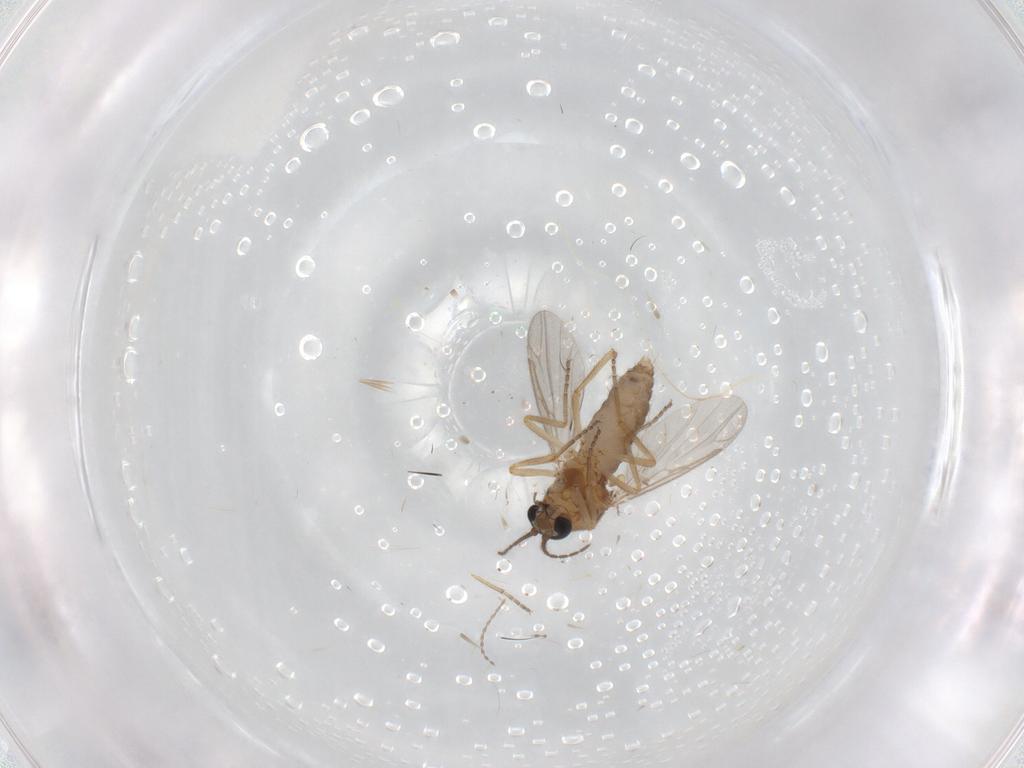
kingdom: Animalia
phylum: Arthropoda
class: Insecta
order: Diptera
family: Ceratopogonidae
